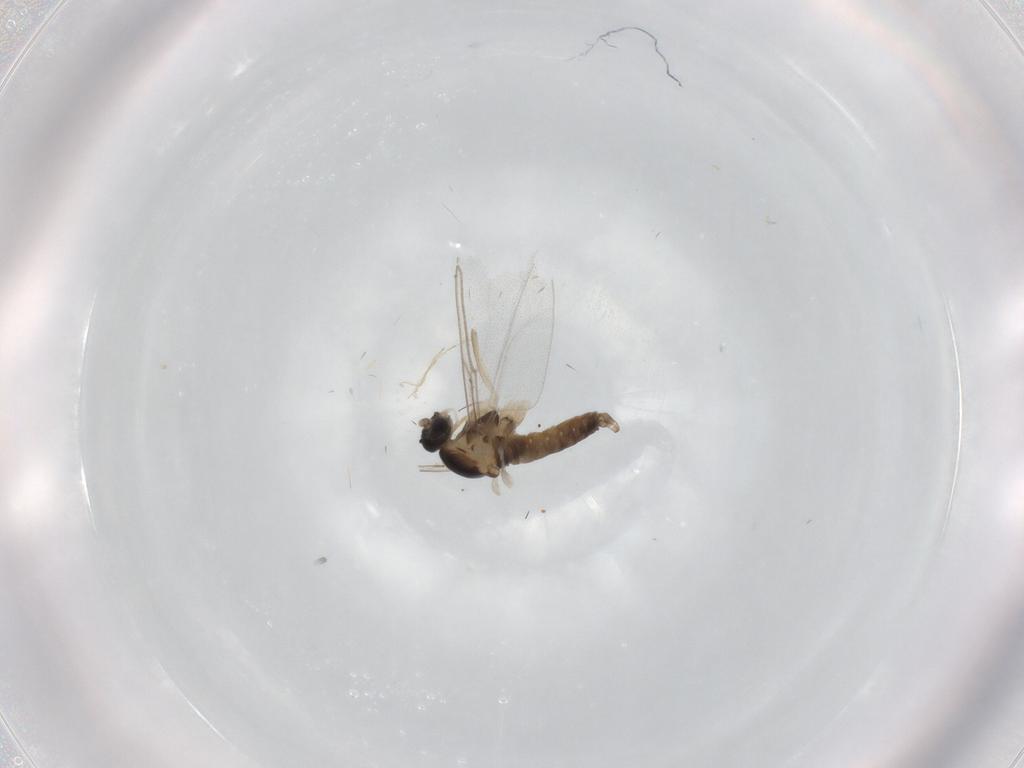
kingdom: Animalia
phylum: Arthropoda
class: Insecta
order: Diptera
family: Cecidomyiidae
